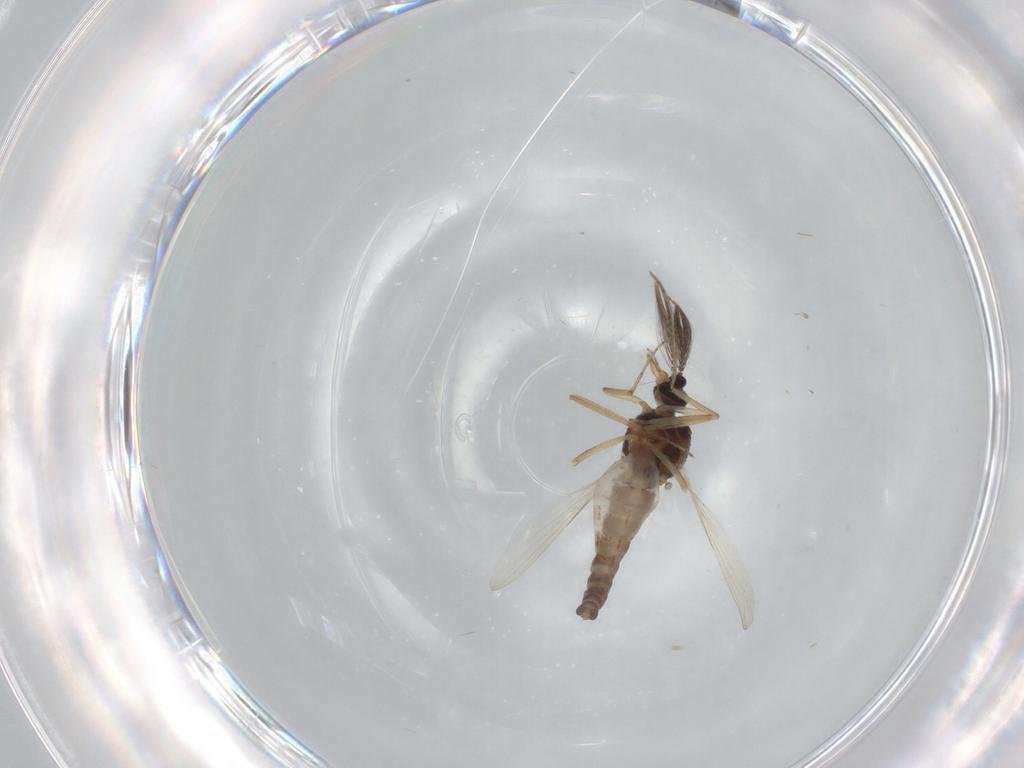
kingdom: Animalia
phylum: Arthropoda
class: Insecta
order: Diptera
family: Ceratopogonidae
